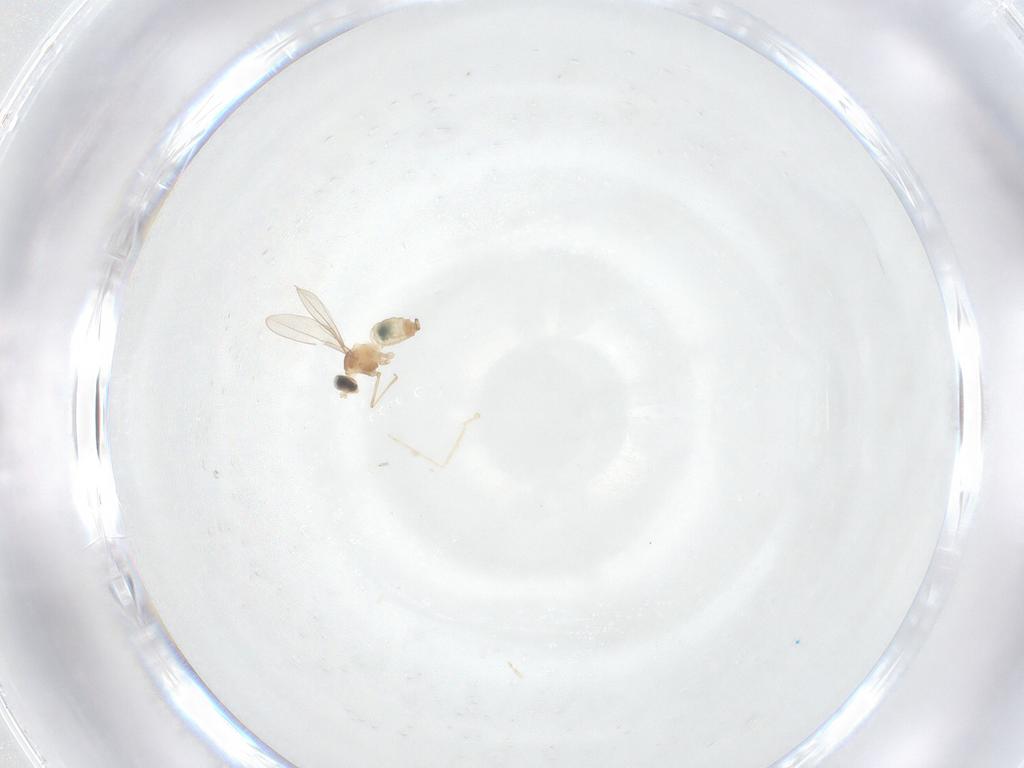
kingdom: Animalia
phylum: Arthropoda
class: Insecta
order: Diptera
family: Cecidomyiidae
